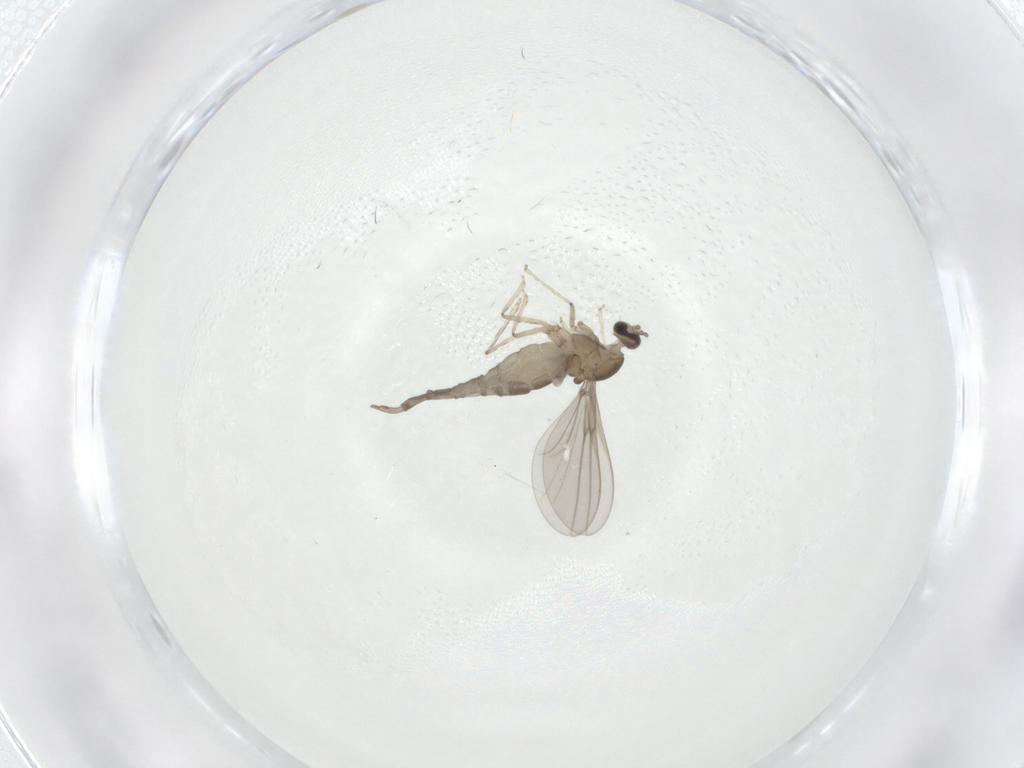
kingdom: Animalia
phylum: Arthropoda
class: Insecta
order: Diptera
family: Cecidomyiidae
